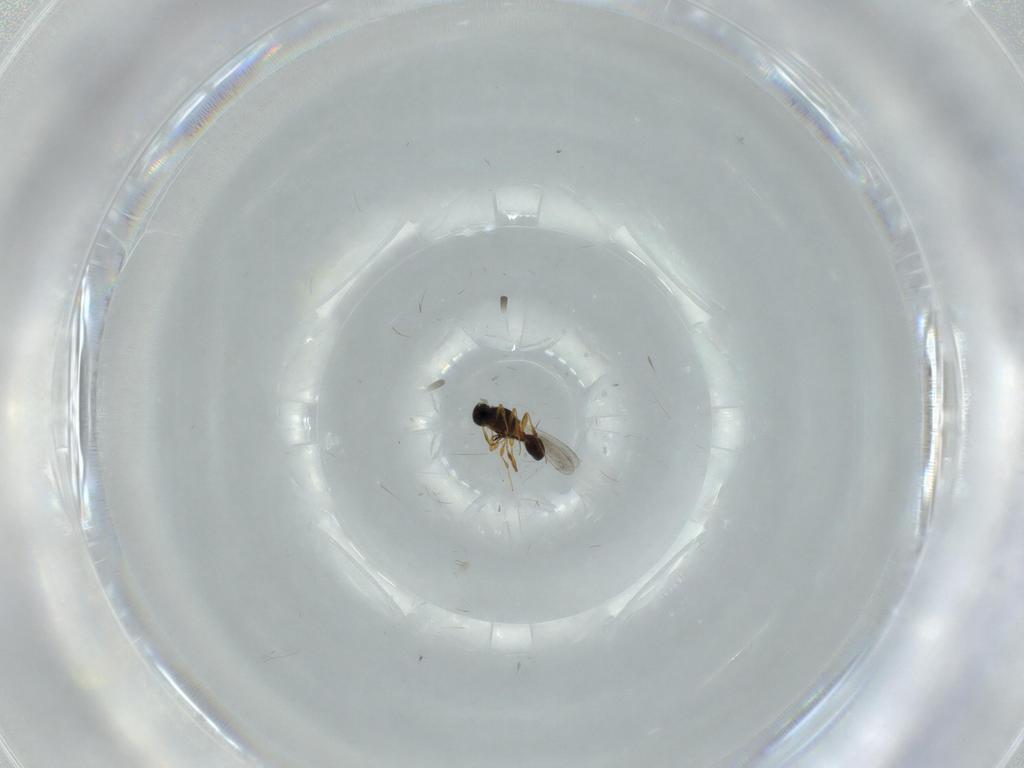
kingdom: Animalia
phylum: Arthropoda
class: Insecta
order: Hymenoptera
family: Platygastridae
